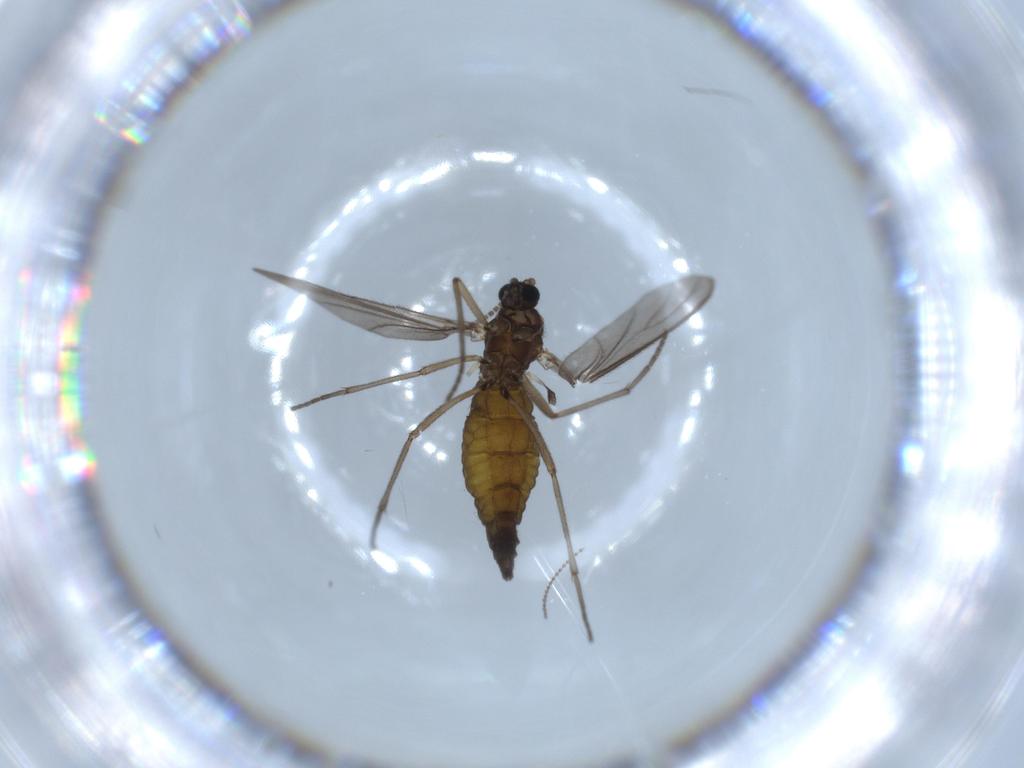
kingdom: Animalia
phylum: Arthropoda
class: Insecta
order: Diptera
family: Sciaridae
